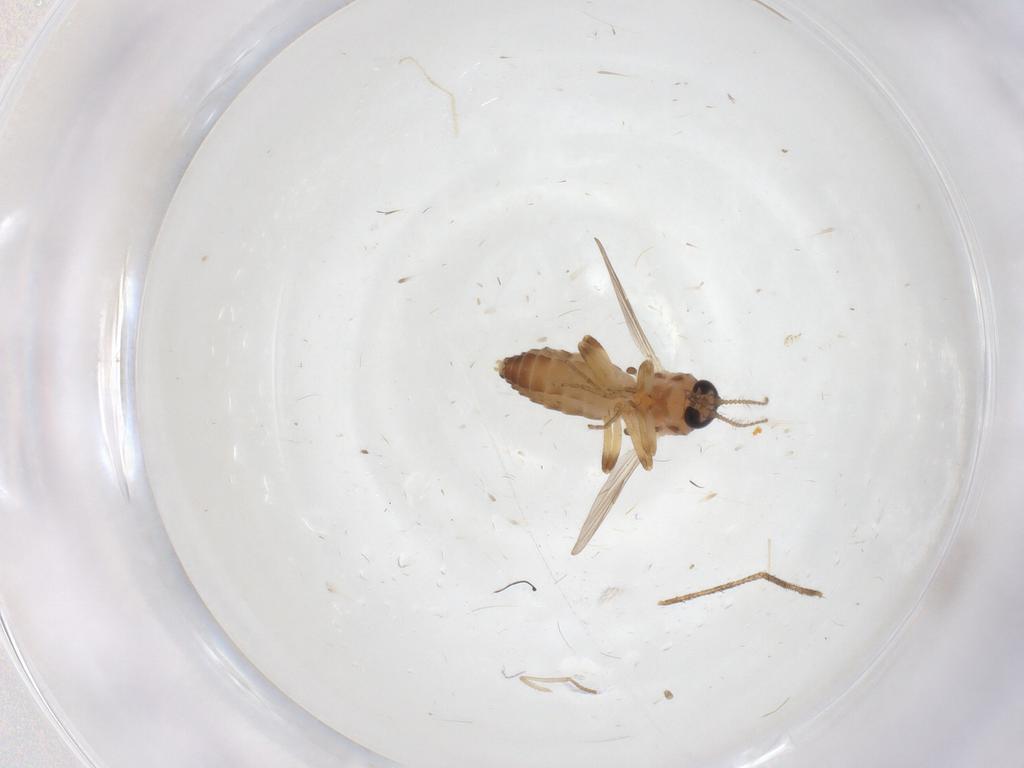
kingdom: Animalia
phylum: Arthropoda
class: Insecta
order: Diptera
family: Ceratopogonidae
